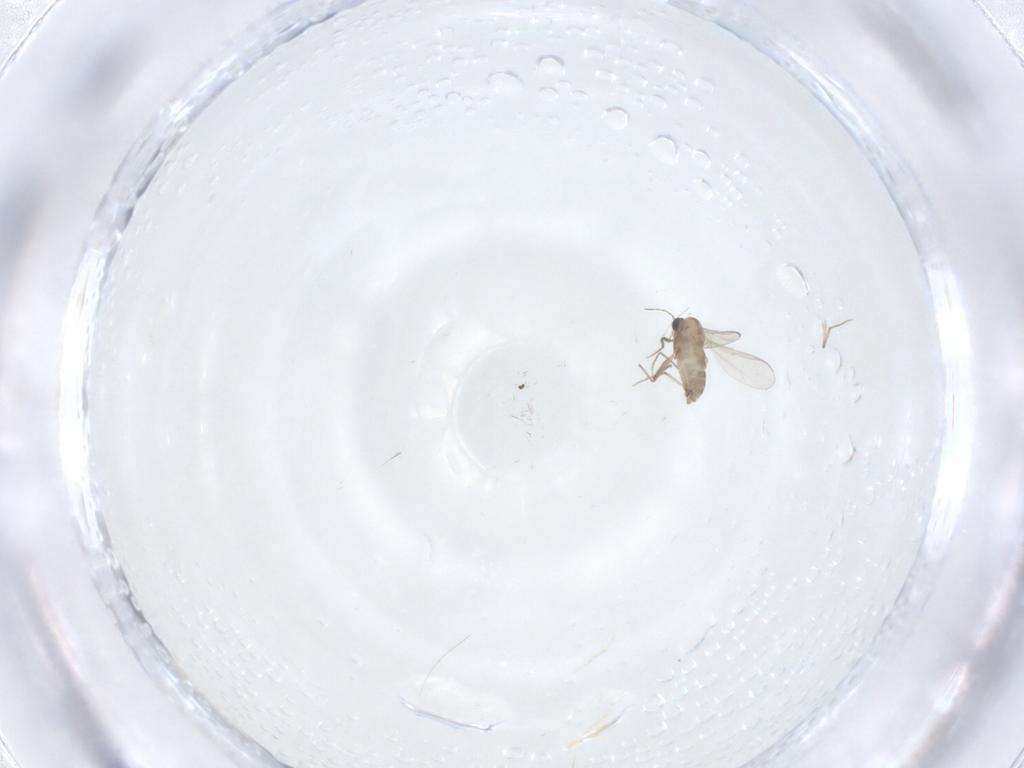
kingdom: Animalia
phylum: Arthropoda
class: Insecta
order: Diptera
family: Chironomidae
